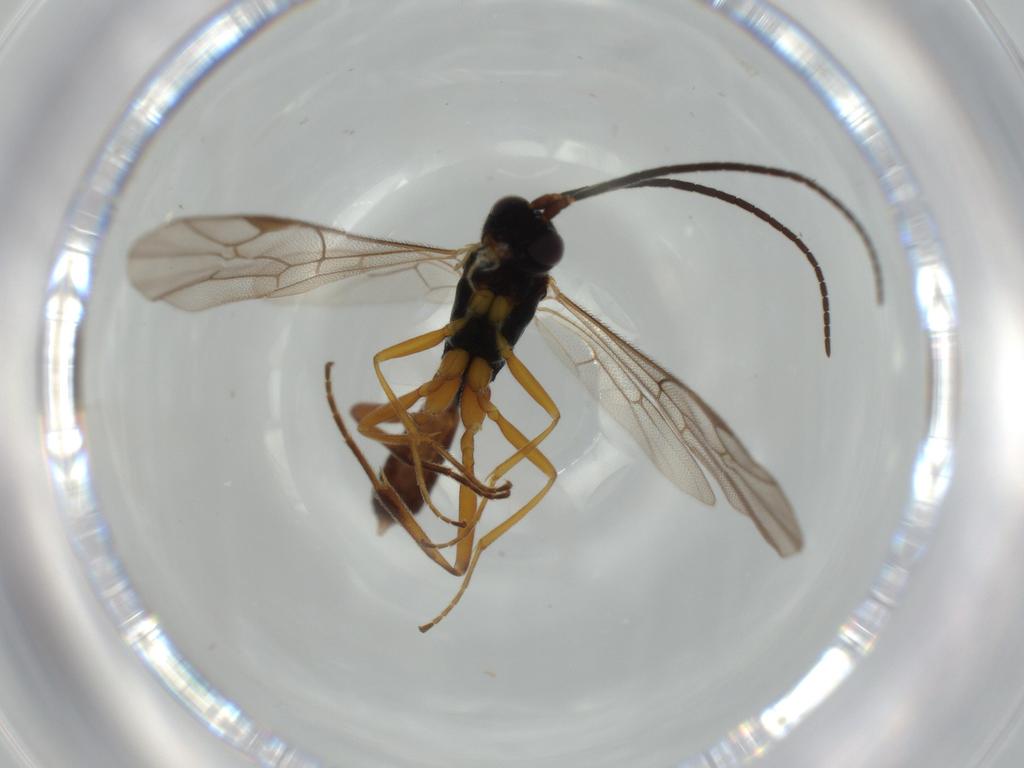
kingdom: Animalia
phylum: Arthropoda
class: Insecta
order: Hymenoptera
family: Ichneumonidae
